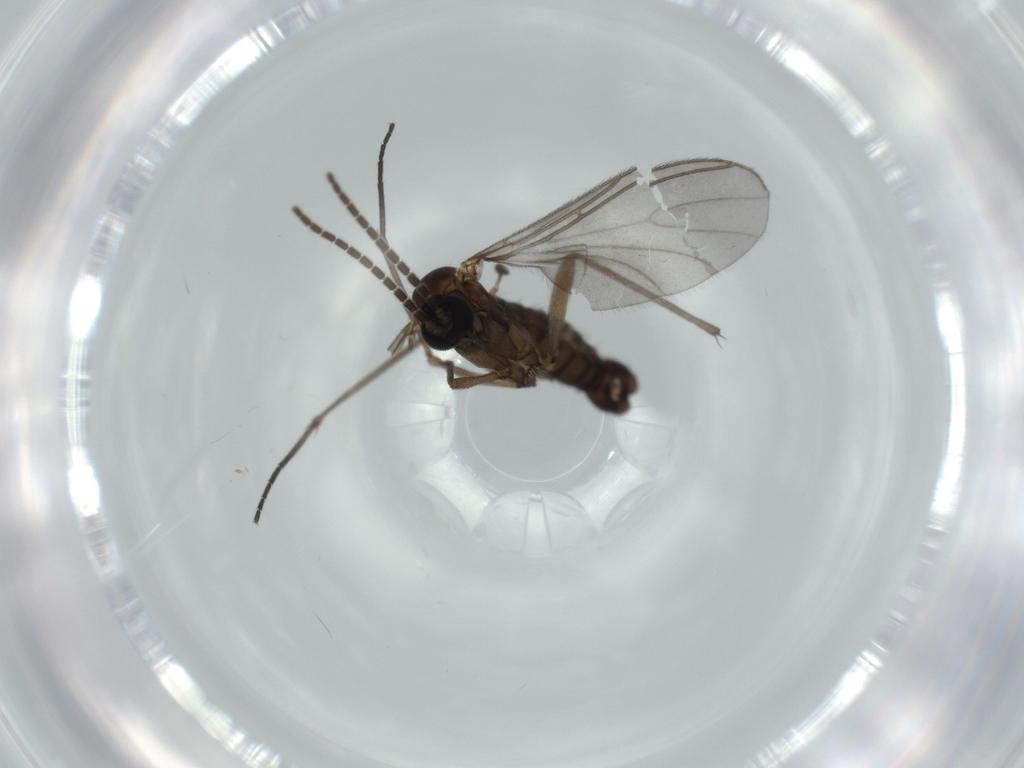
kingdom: Animalia
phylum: Arthropoda
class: Insecta
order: Diptera
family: Sciaridae
